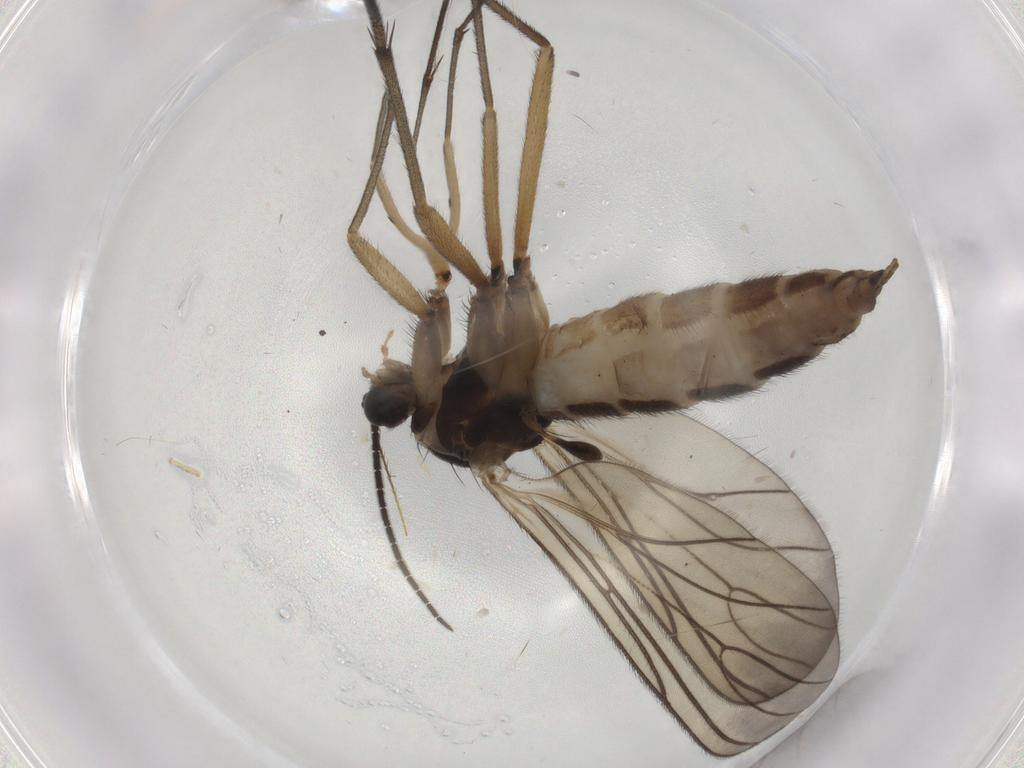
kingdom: Animalia
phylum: Arthropoda
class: Insecta
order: Diptera
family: Sciaridae
